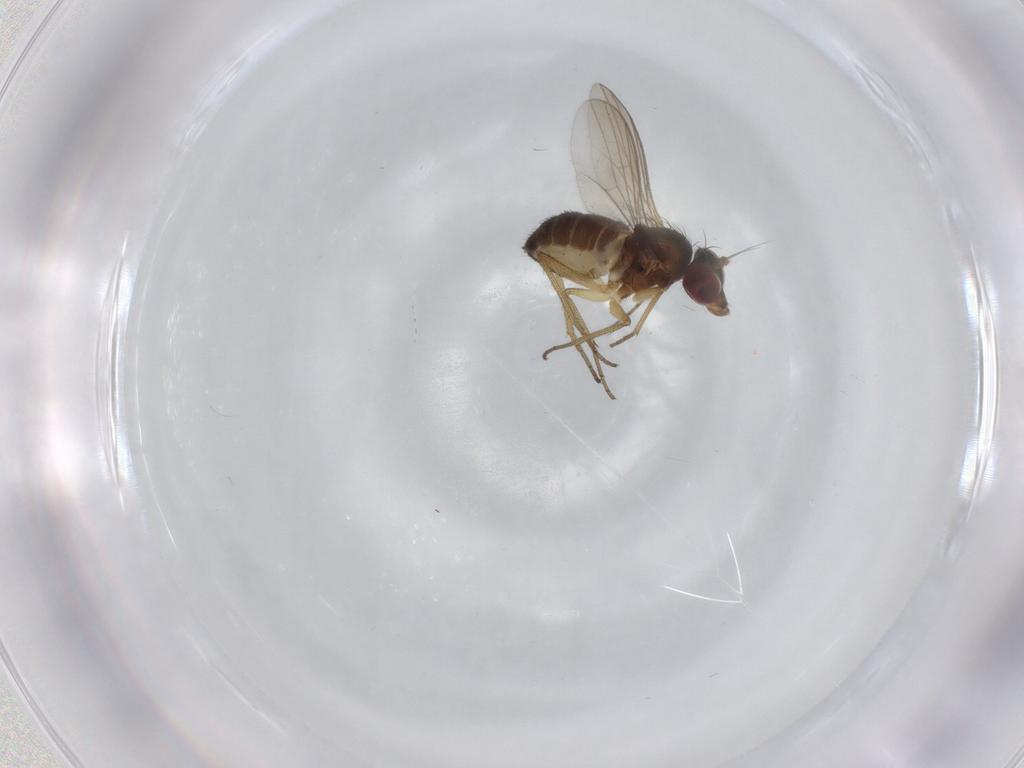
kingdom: Animalia
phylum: Arthropoda
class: Insecta
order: Diptera
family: Dolichopodidae
